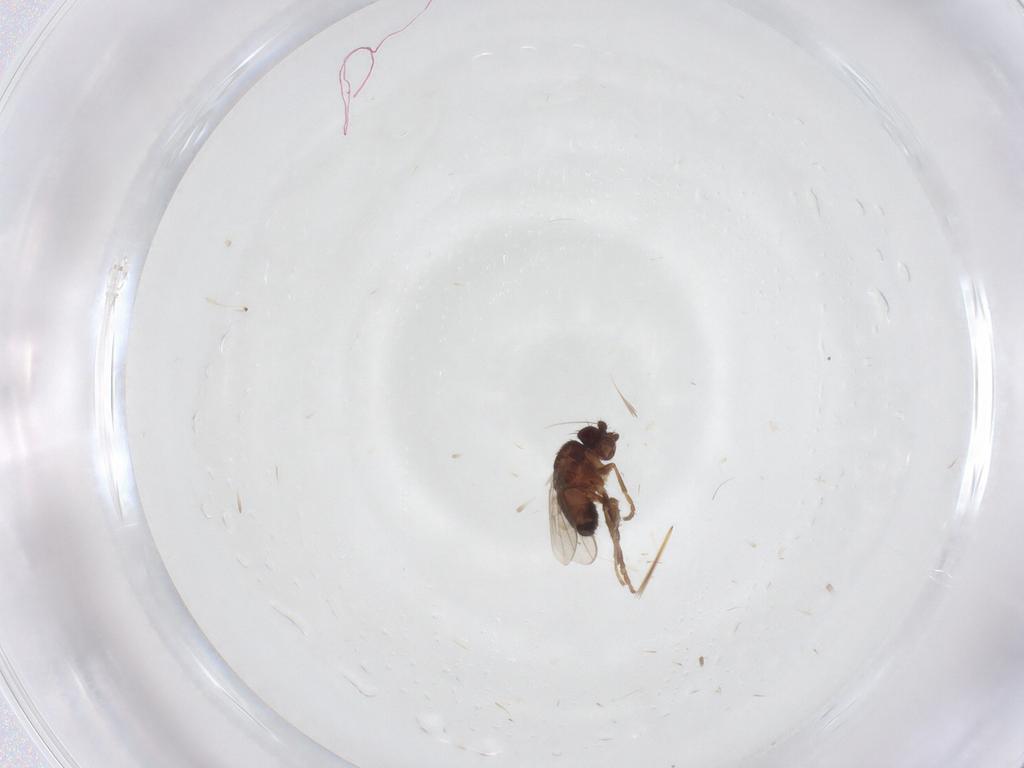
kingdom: Animalia
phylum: Arthropoda
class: Insecta
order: Diptera
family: Sphaeroceridae
